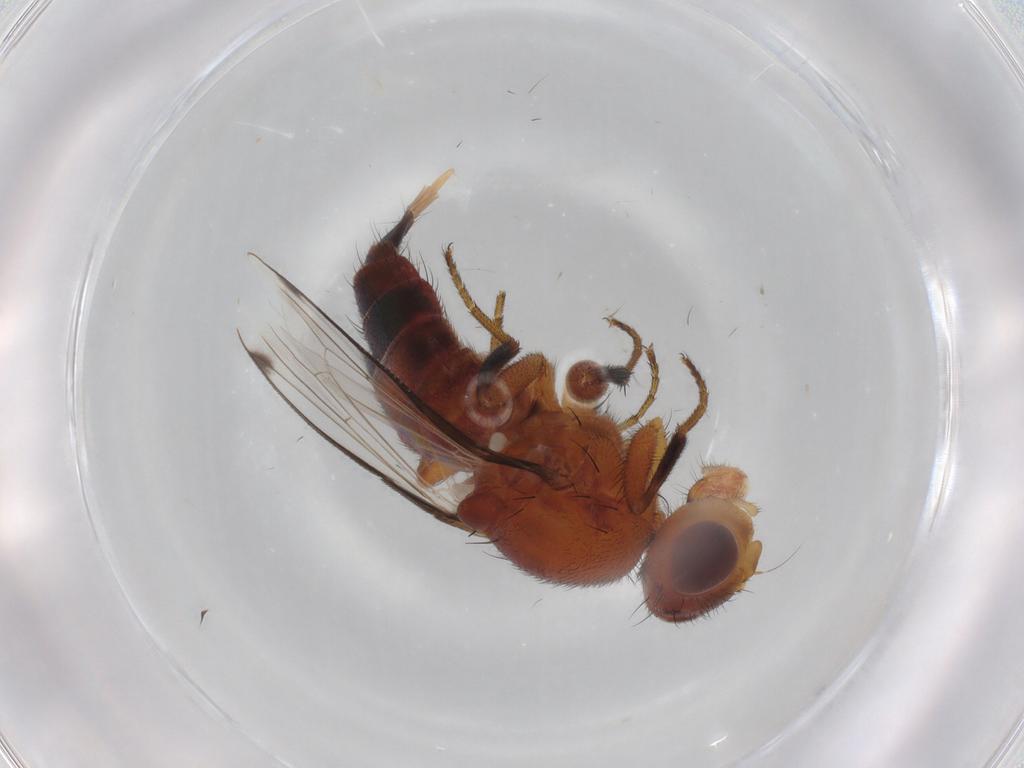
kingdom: Animalia
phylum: Arthropoda
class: Insecta
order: Diptera
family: Richardiidae
